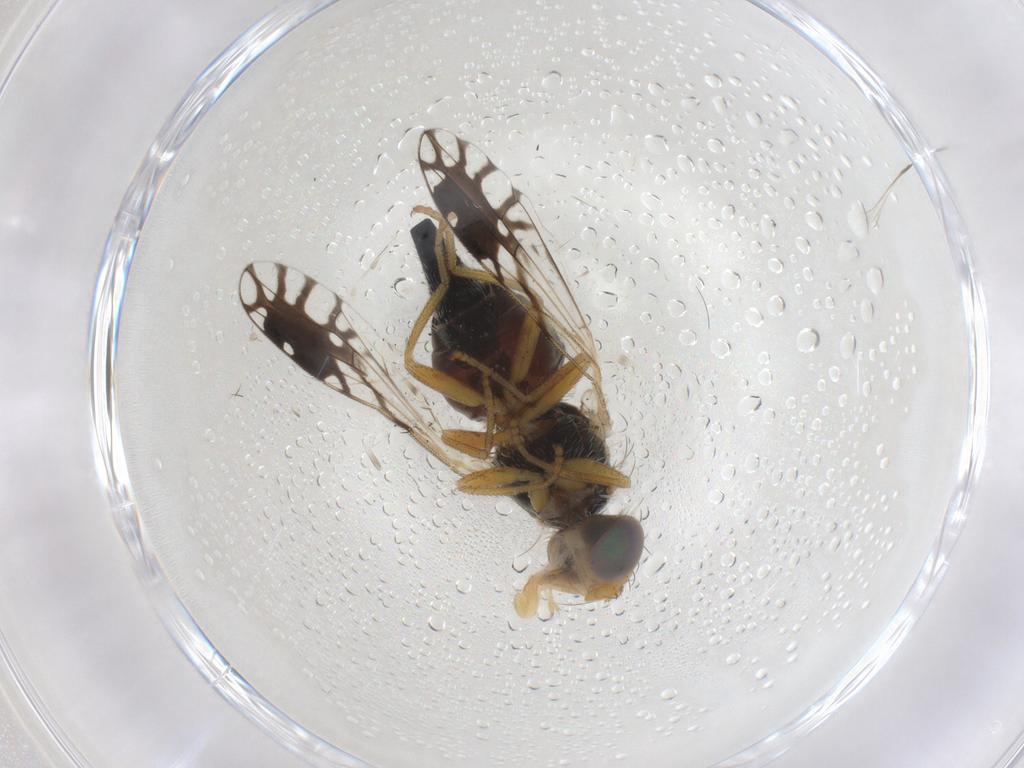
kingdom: Animalia
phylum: Arthropoda
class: Insecta
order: Diptera
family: Tephritidae
